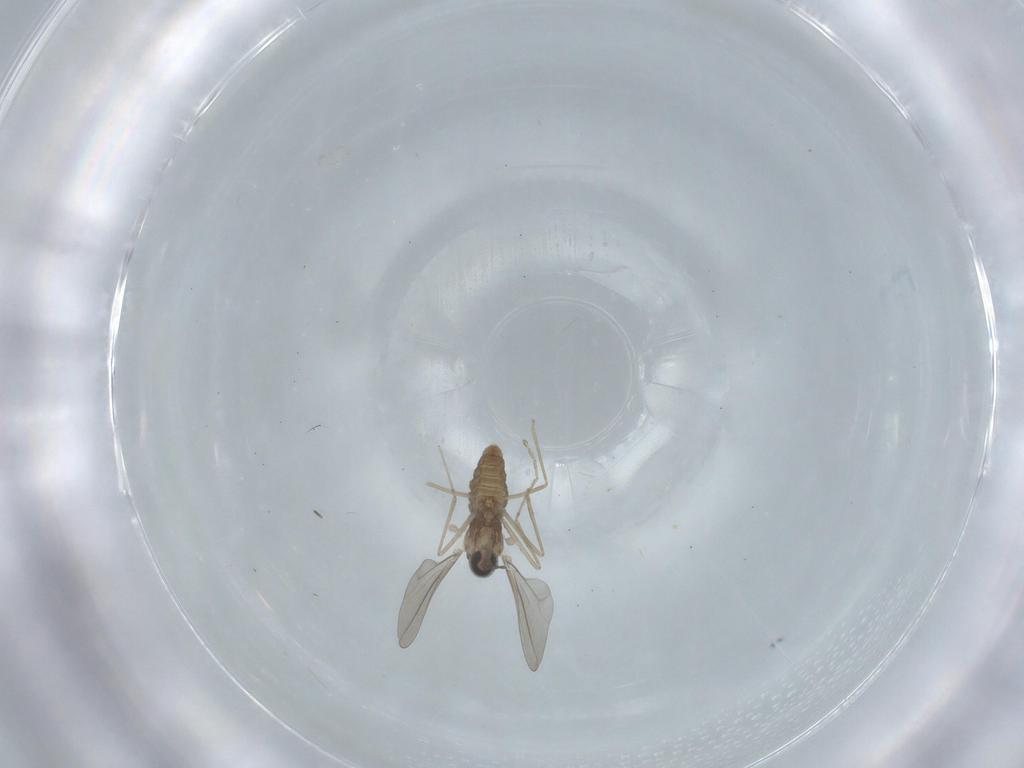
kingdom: Animalia
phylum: Arthropoda
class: Insecta
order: Diptera
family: Cecidomyiidae
